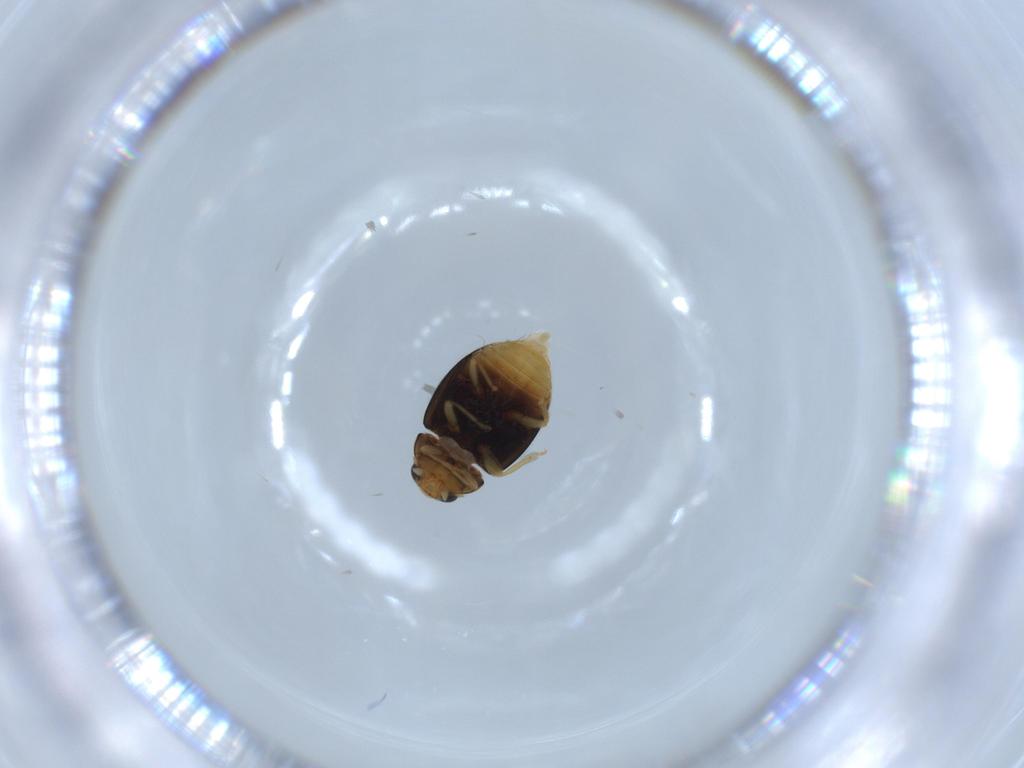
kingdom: Animalia
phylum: Arthropoda
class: Insecta
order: Coleoptera
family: Coccinellidae
